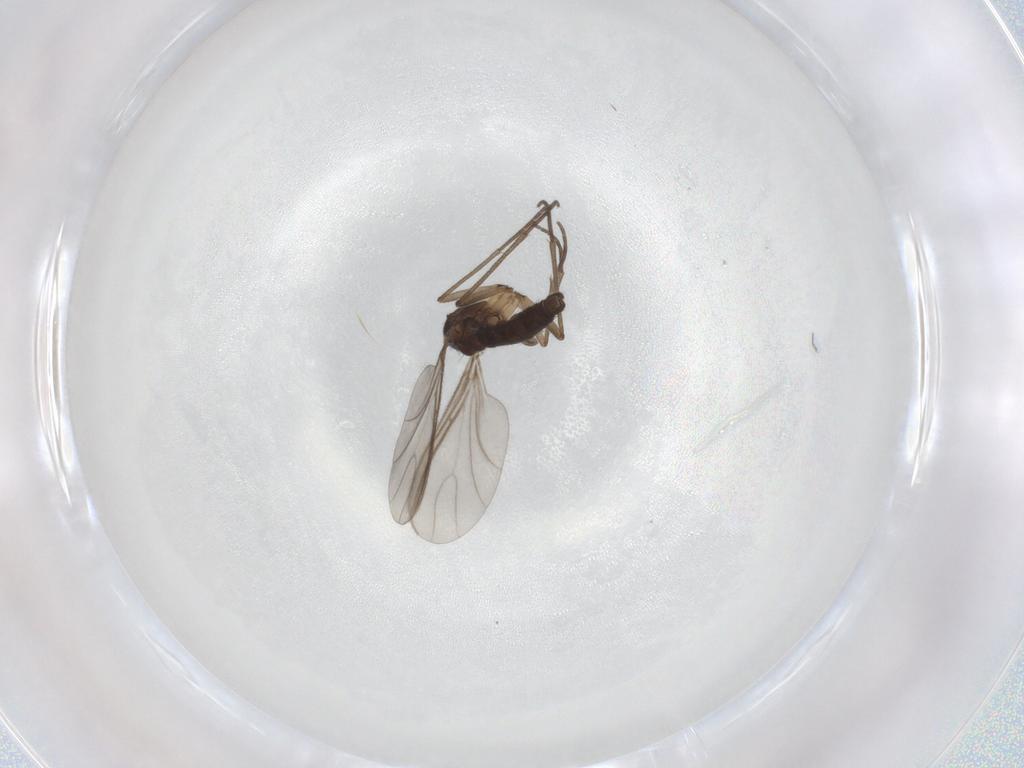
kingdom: Animalia
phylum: Arthropoda
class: Insecta
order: Diptera
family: Sciaridae
